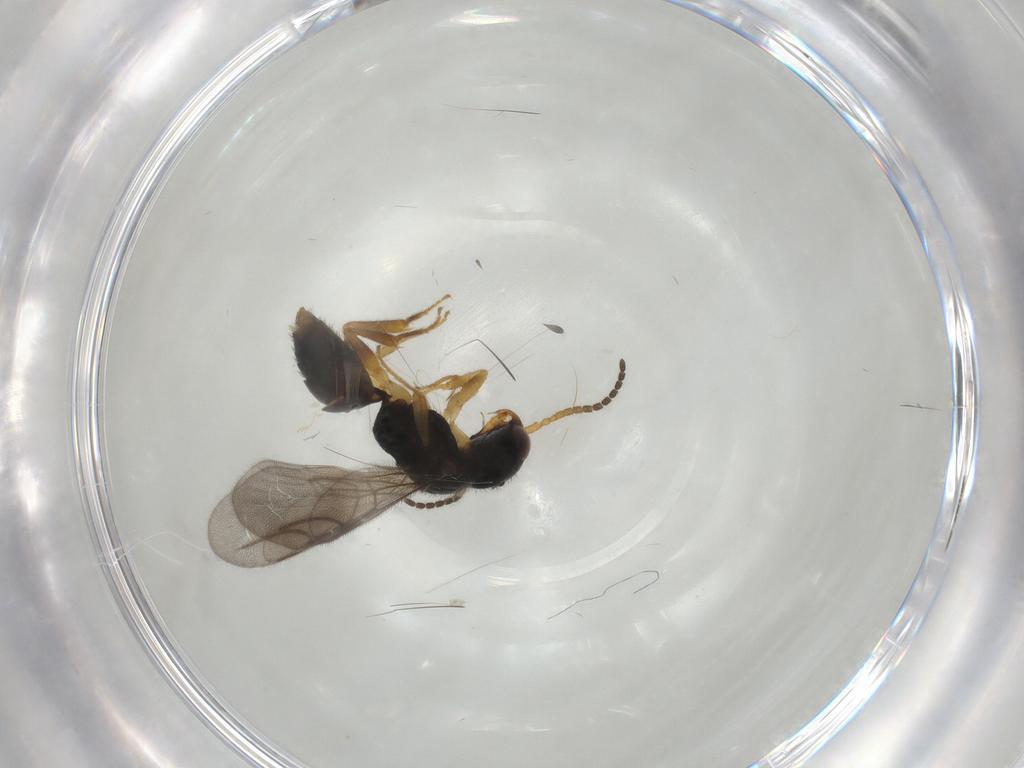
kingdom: Animalia
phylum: Arthropoda
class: Insecta
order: Hymenoptera
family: Bethylidae
